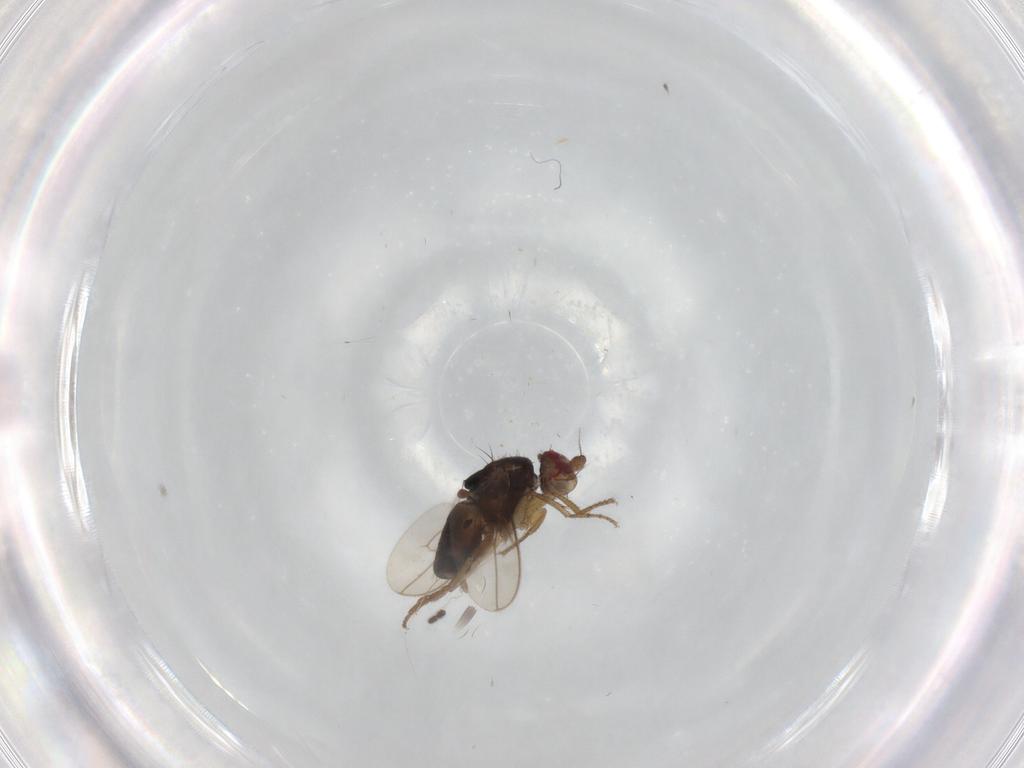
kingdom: Animalia
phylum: Arthropoda
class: Insecta
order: Diptera
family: Sphaeroceridae
